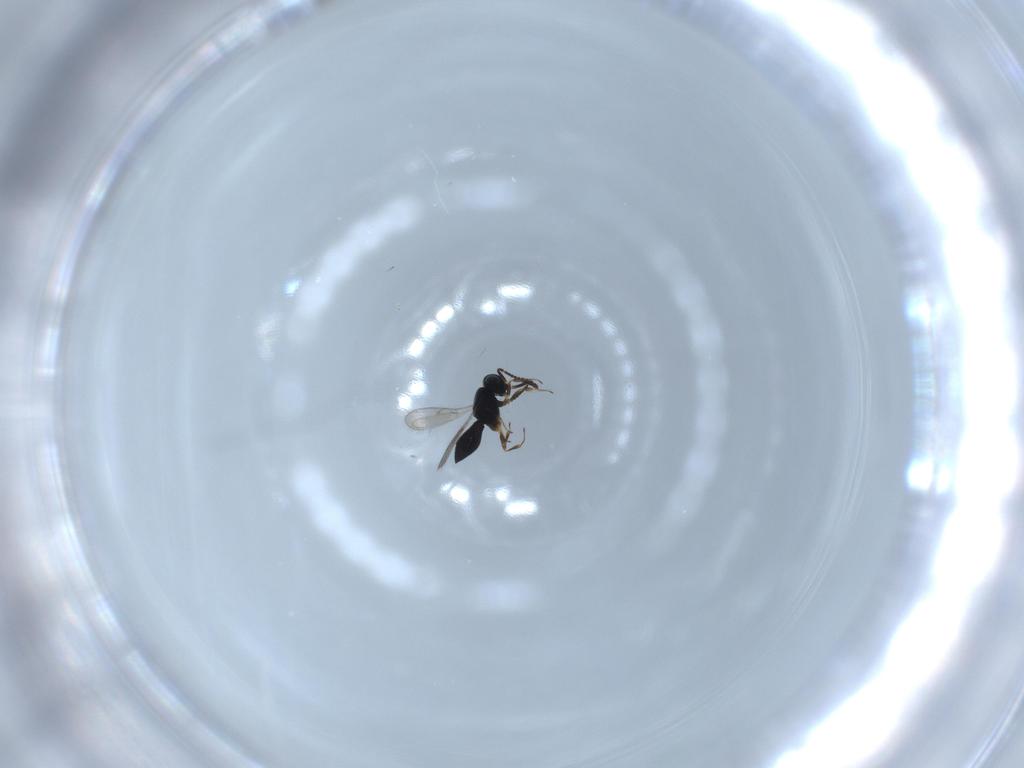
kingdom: Animalia
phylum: Arthropoda
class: Insecta
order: Hymenoptera
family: Scelionidae
